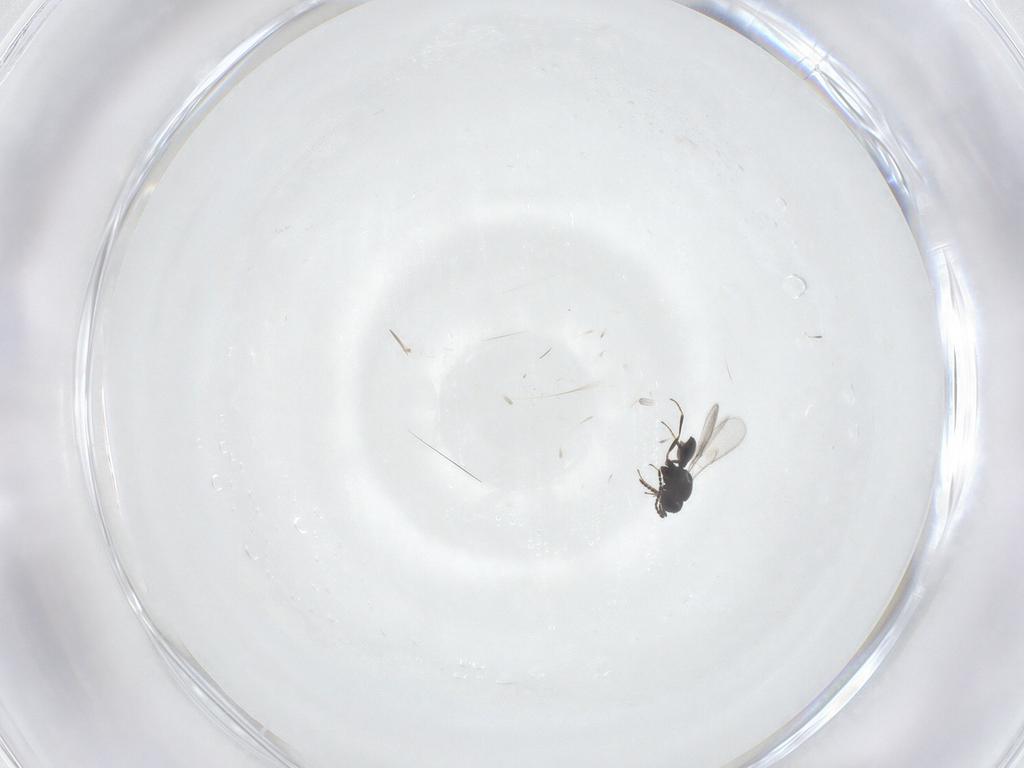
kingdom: Animalia
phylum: Arthropoda
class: Insecta
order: Hymenoptera
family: Scelionidae
